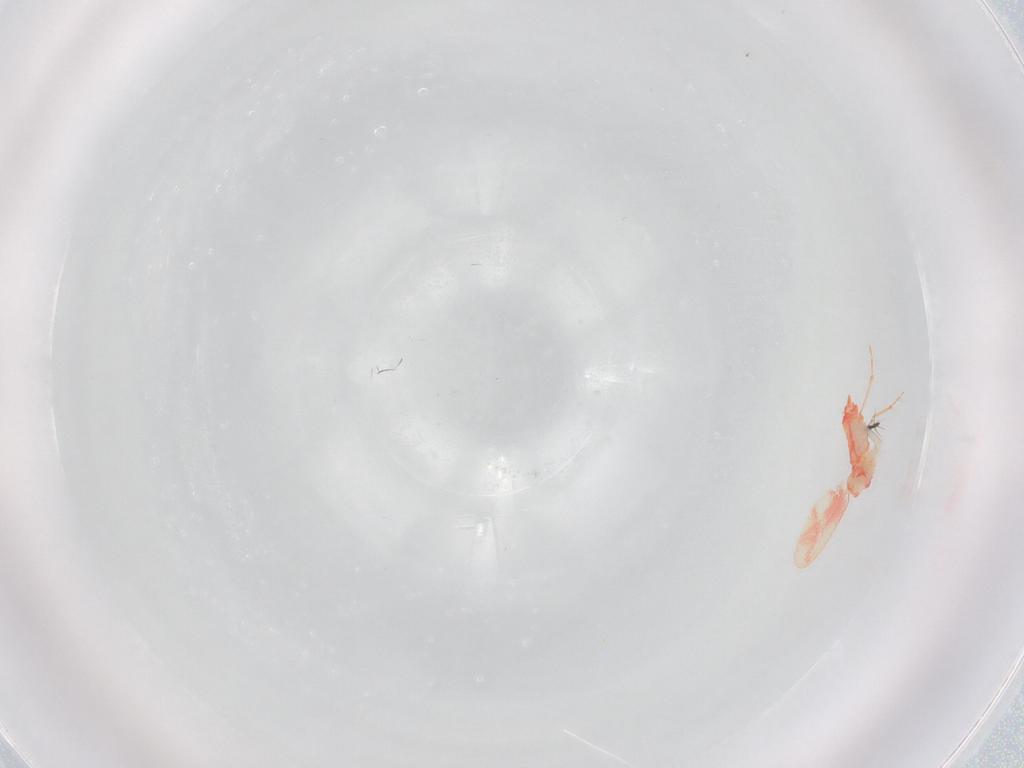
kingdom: Animalia
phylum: Arthropoda
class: Insecta
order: Hemiptera
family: Aleyrodidae
